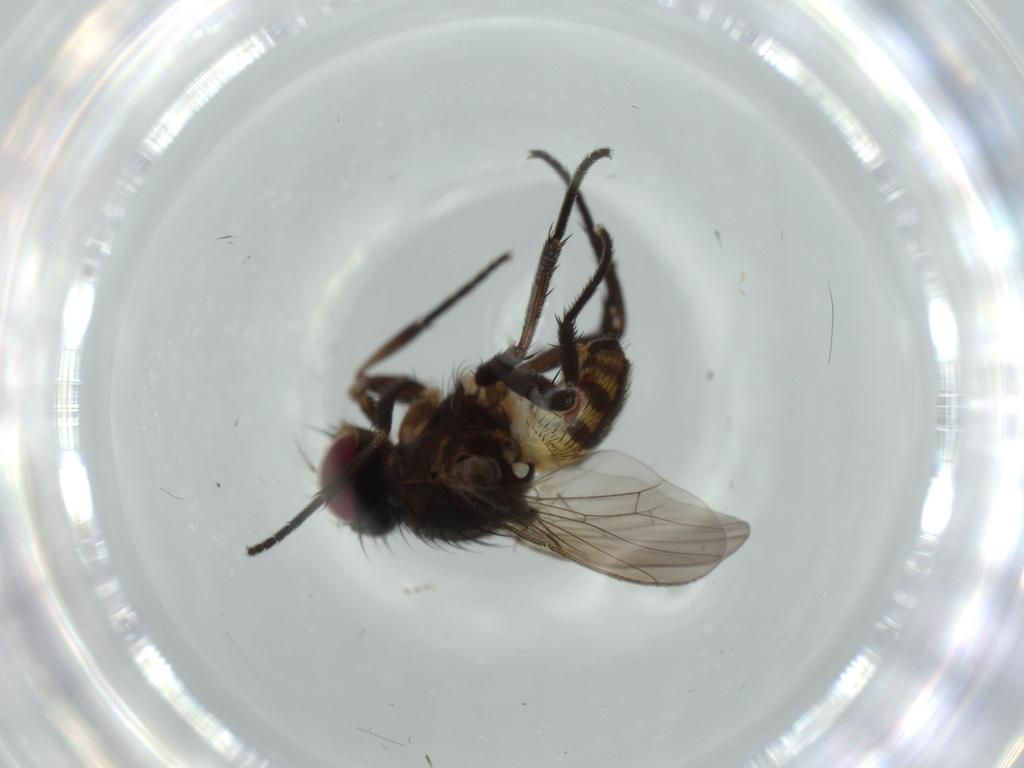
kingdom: Animalia
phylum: Arthropoda
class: Insecta
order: Diptera
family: Anthomyiidae
